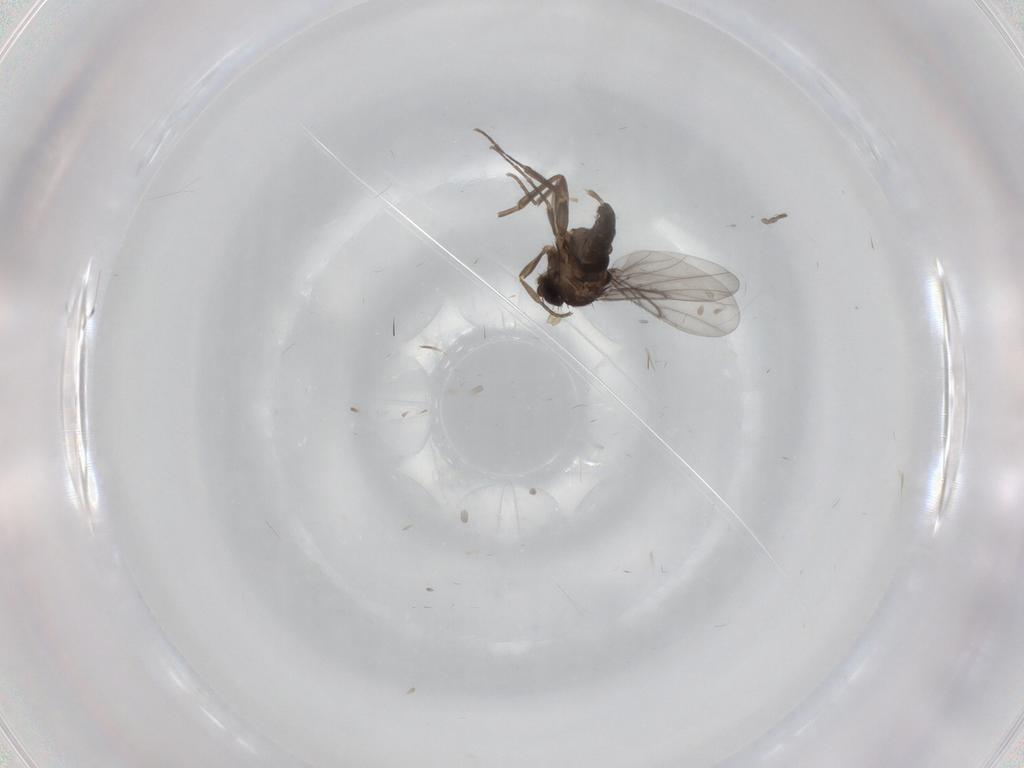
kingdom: Animalia
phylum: Arthropoda
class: Insecta
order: Diptera
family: Phoridae
